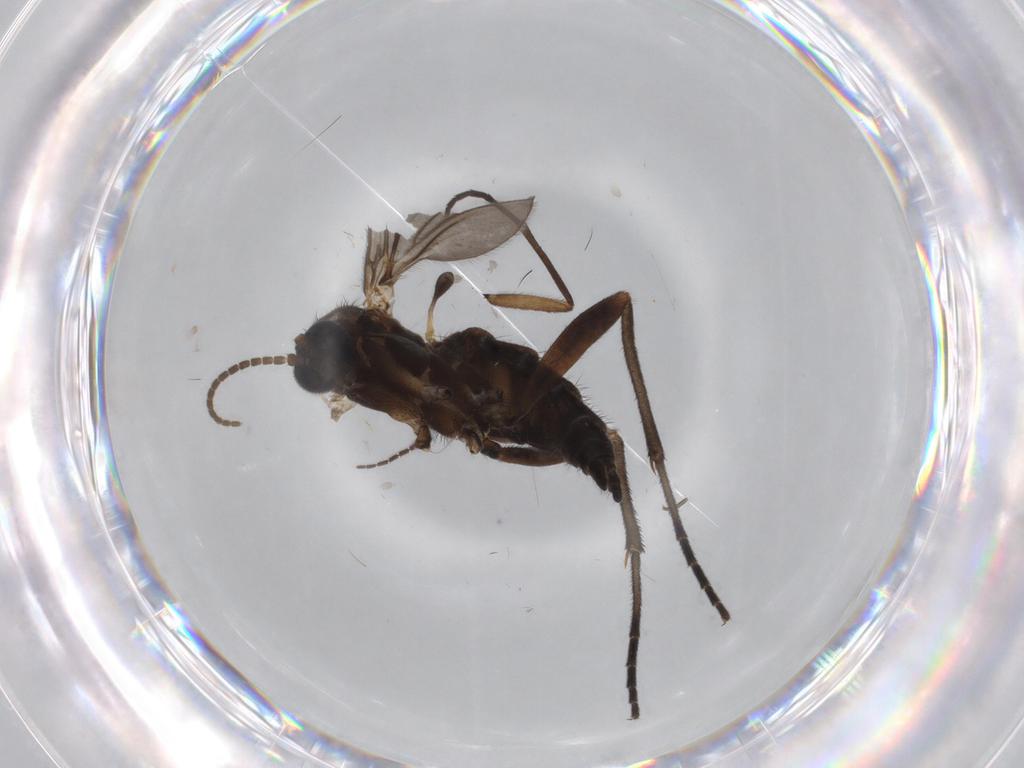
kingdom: Animalia
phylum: Arthropoda
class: Insecta
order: Diptera
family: Sciaridae
